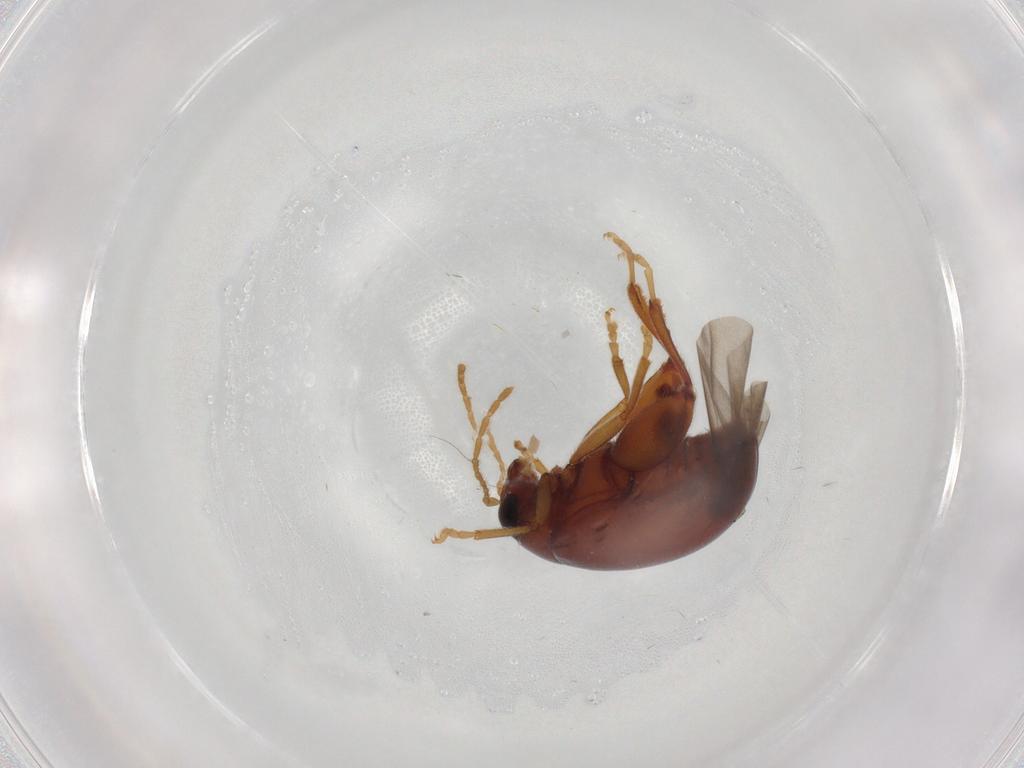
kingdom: Animalia
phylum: Arthropoda
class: Insecta
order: Coleoptera
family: Chrysomelidae
